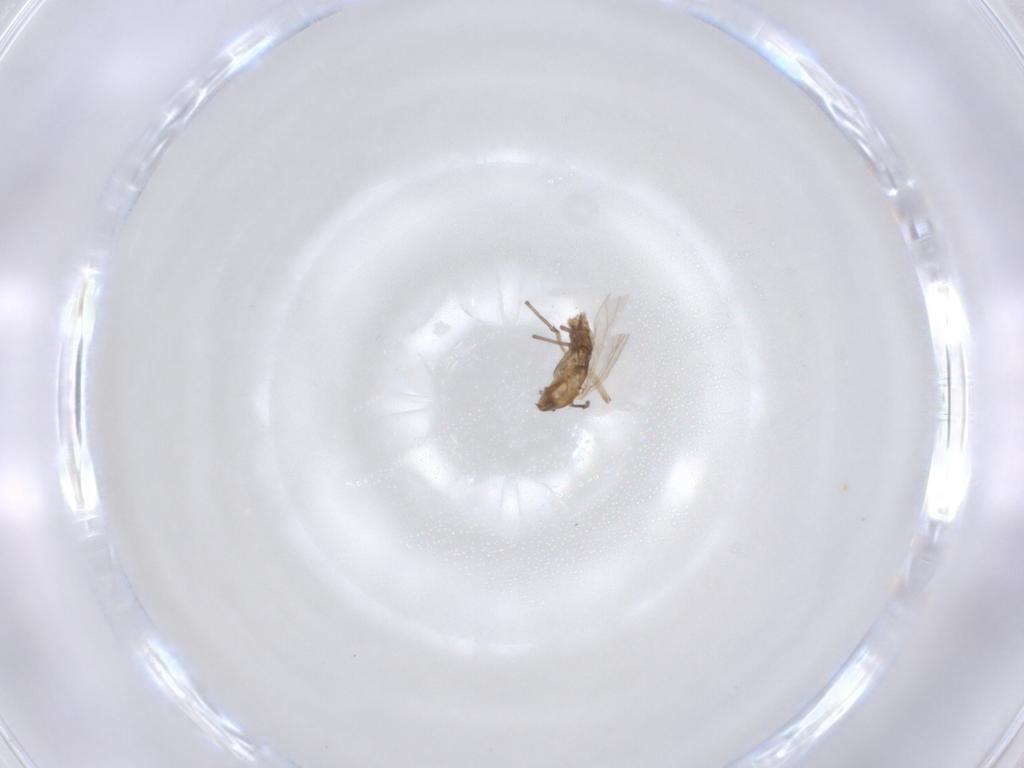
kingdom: Animalia
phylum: Arthropoda
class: Insecta
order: Diptera
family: Chironomidae
